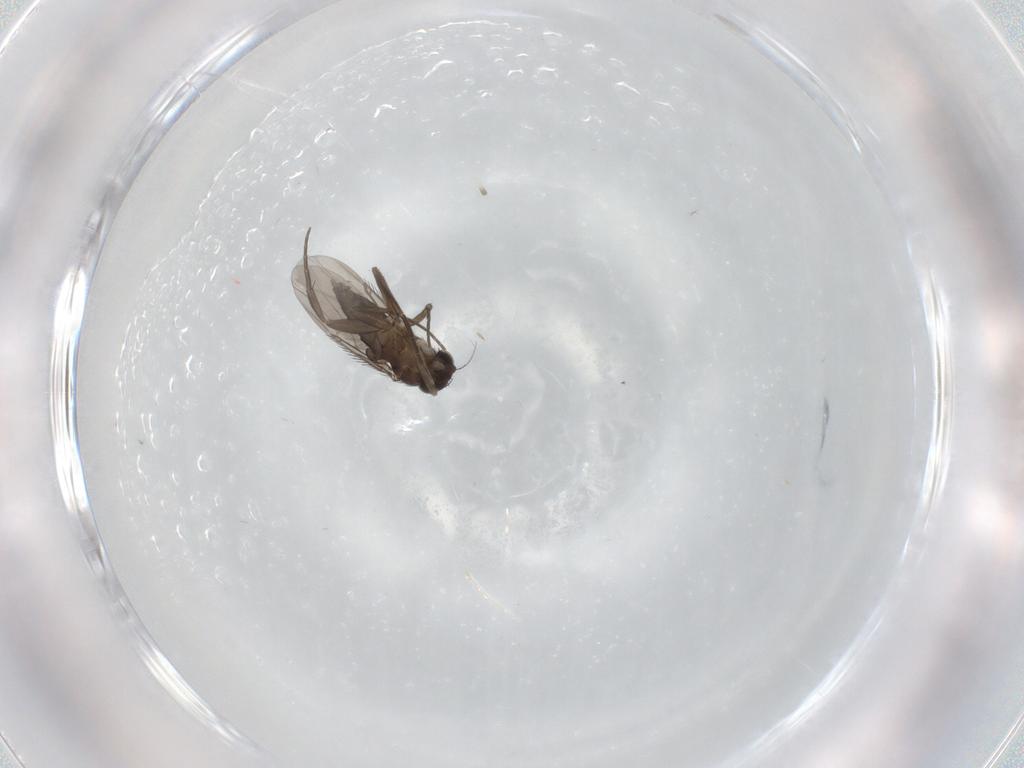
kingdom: Animalia
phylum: Arthropoda
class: Insecta
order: Diptera
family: Phoridae
